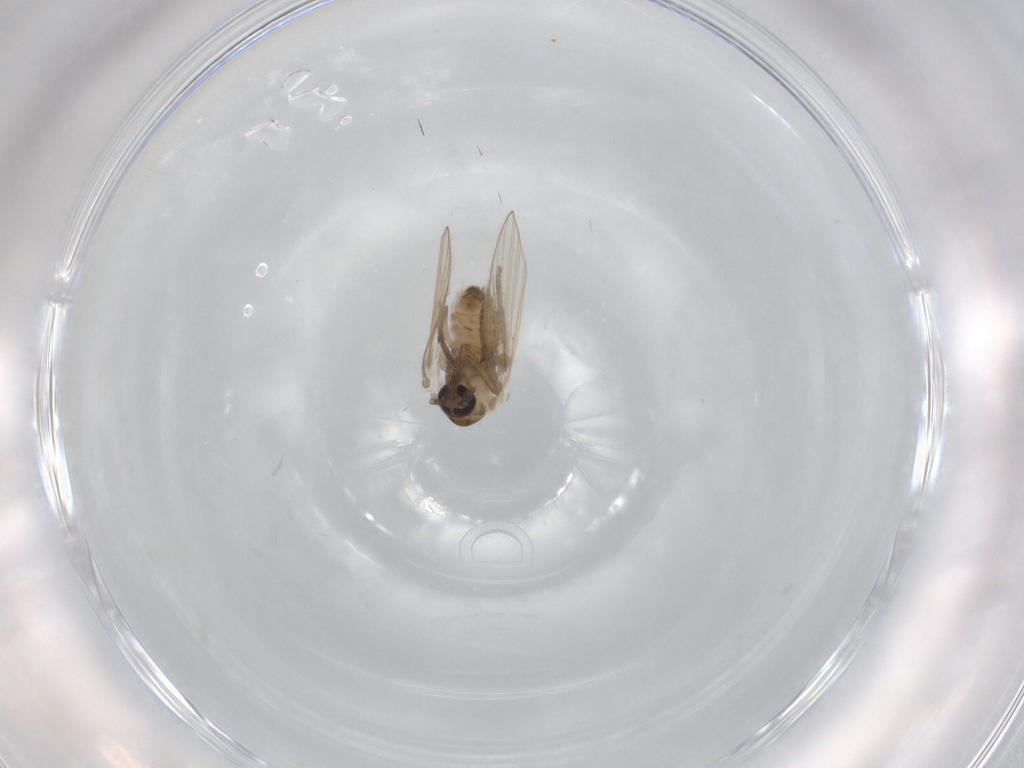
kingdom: Animalia
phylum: Arthropoda
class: Insecta
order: Diptera
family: Psychodidae
